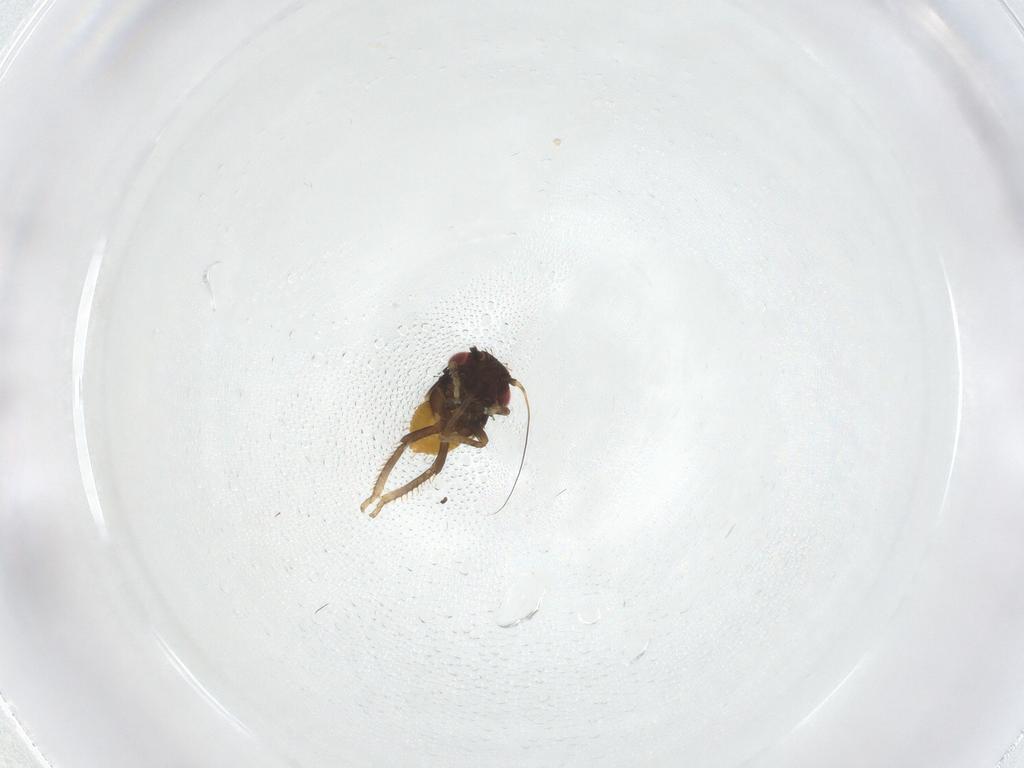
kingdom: Animalia
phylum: Arthropoda
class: Insecta
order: Hemiptera
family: Cicadellidae
